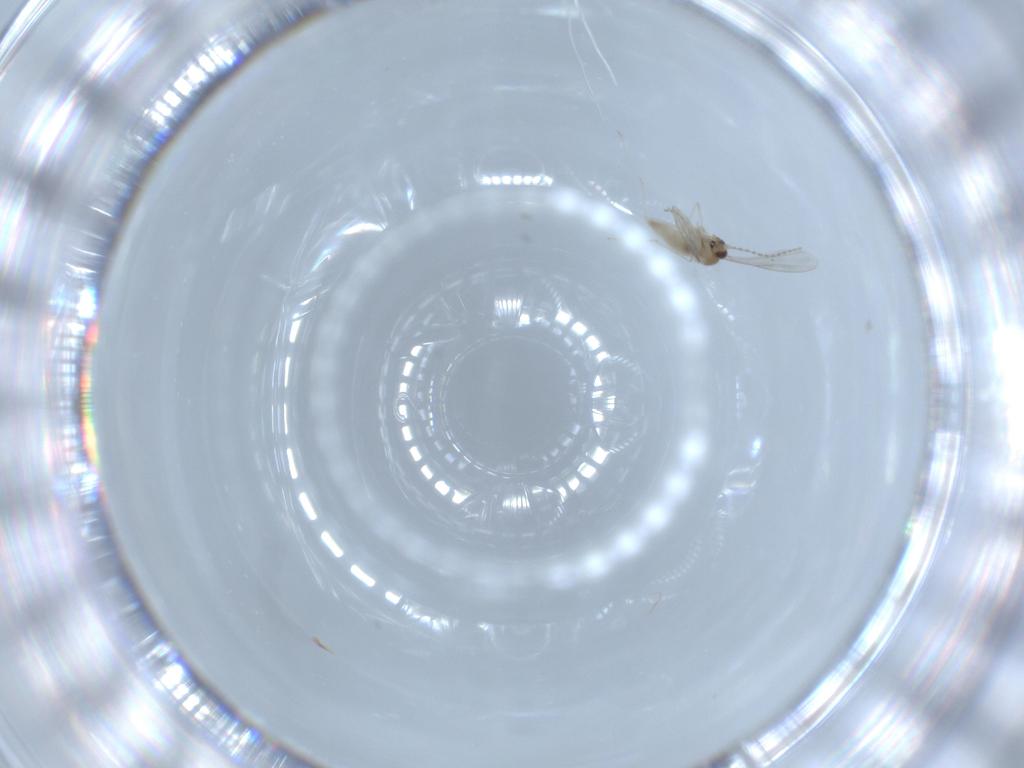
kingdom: Animalia
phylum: Arthropoda
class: Insecta
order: Diptera
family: Cecidomyiidae
